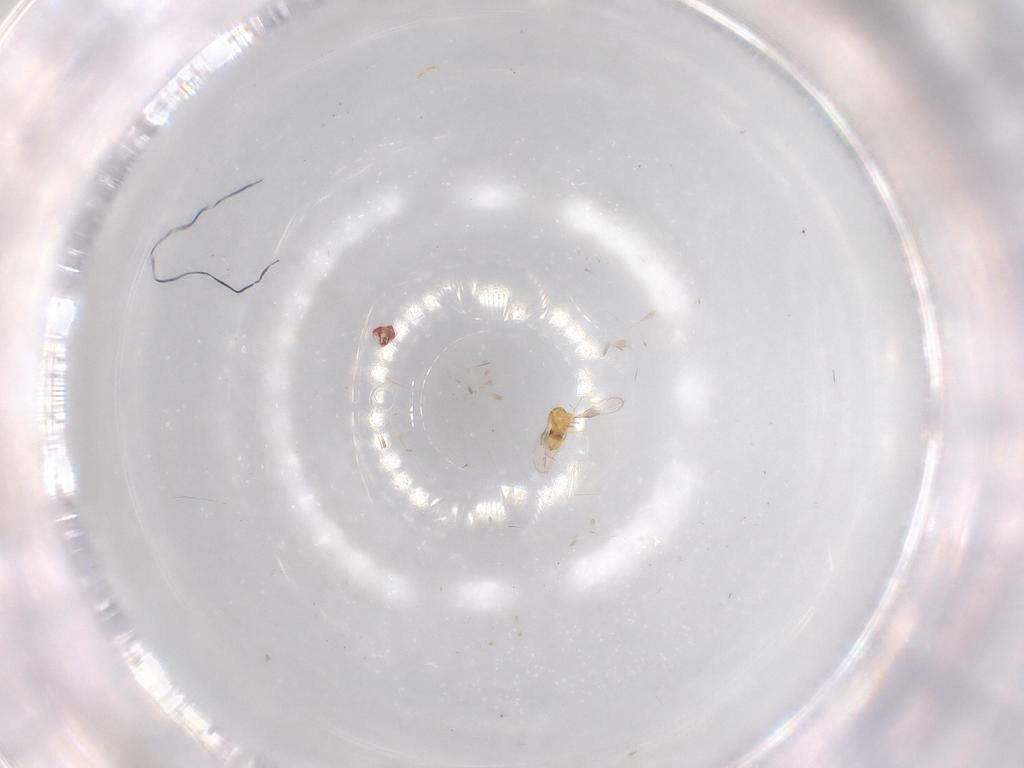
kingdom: Animalia
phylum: Arthropoda
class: Insecta
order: Hymenoptera
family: Trichogrammatidae
